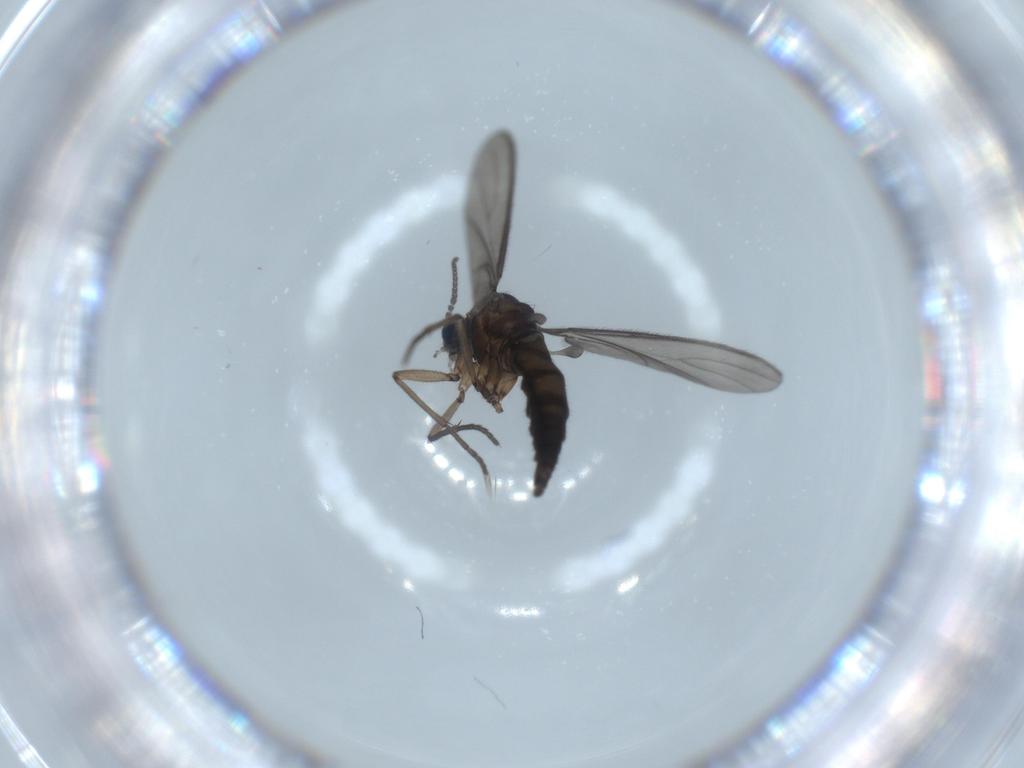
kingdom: Animalia
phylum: Arthropoda
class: Insecta
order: Diptera
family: Sciaridae
